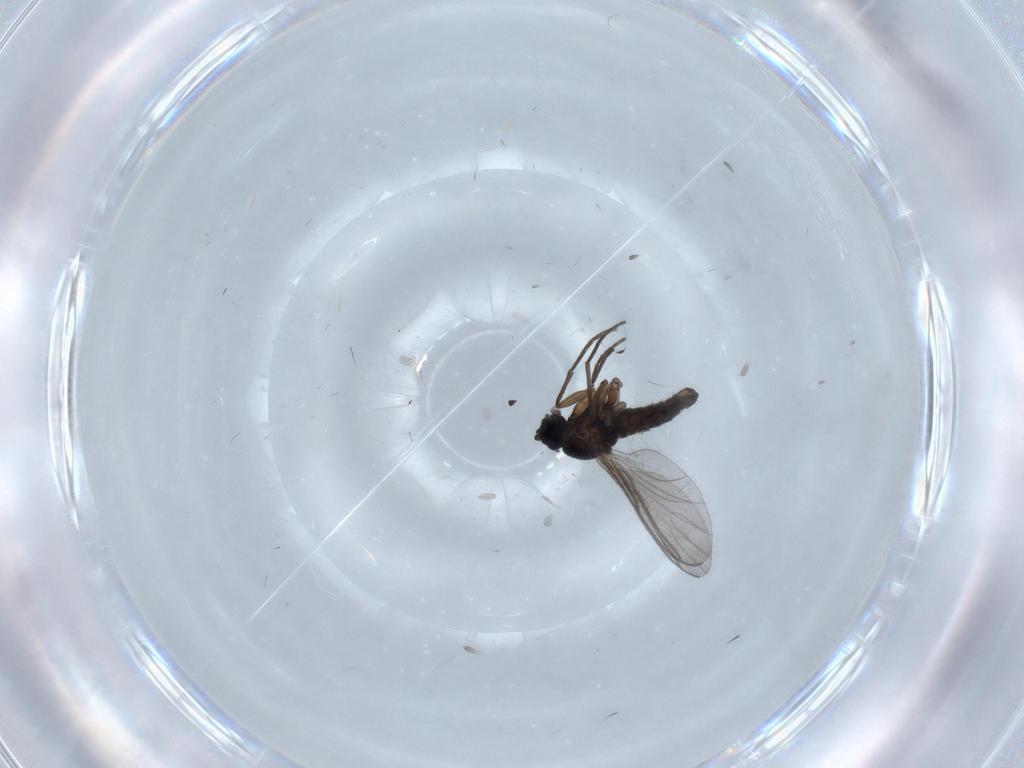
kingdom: Animalia
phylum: Arthropoda
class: Insecta
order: Diptera
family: Sciaridae
